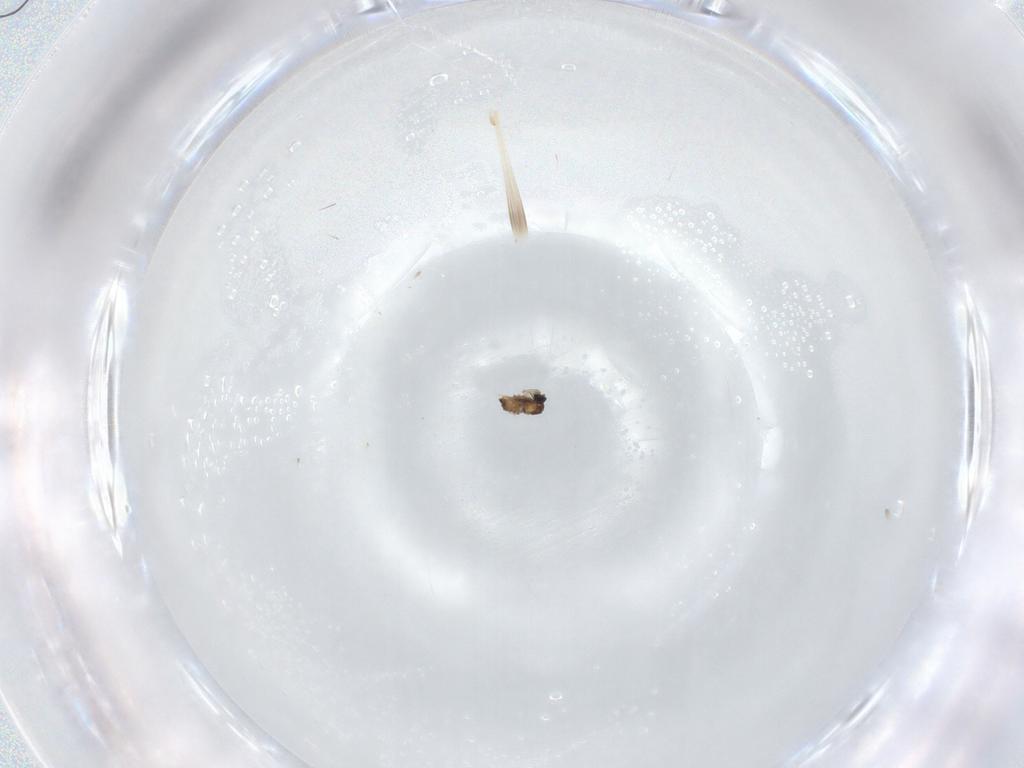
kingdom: Animalia
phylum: Arthropoda
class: Insecta
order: Diptera
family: Cecidomyiidae
